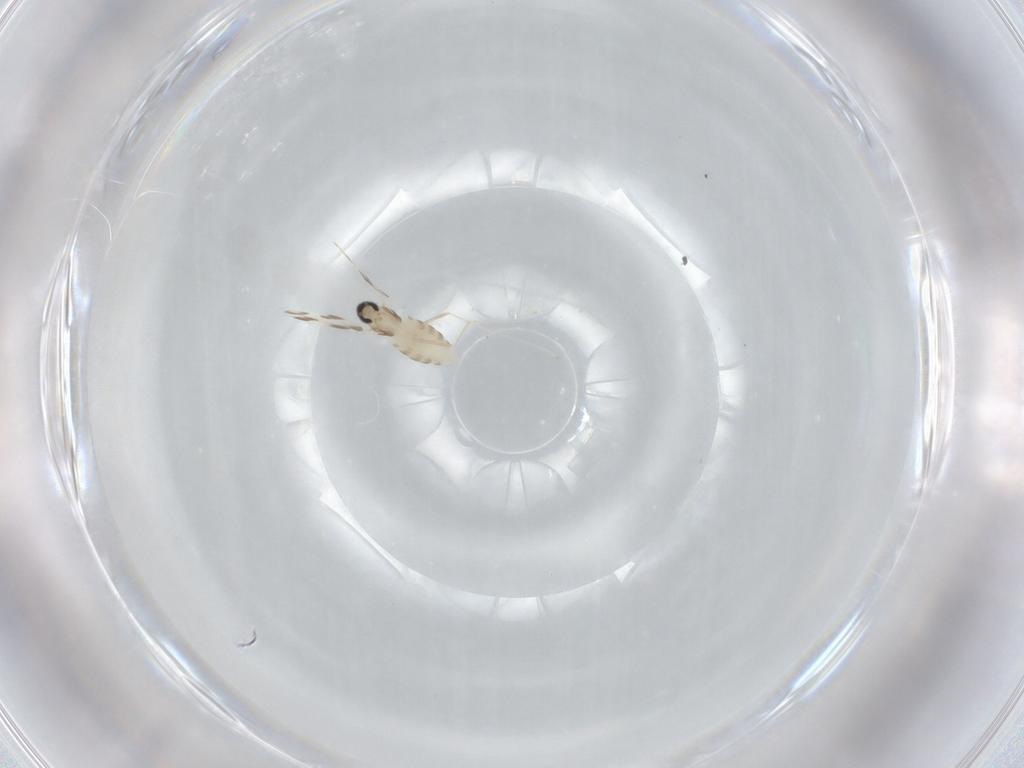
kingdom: Animalia
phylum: Arthropoda
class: Insecta
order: Diptera
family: Cecidomyiidae
